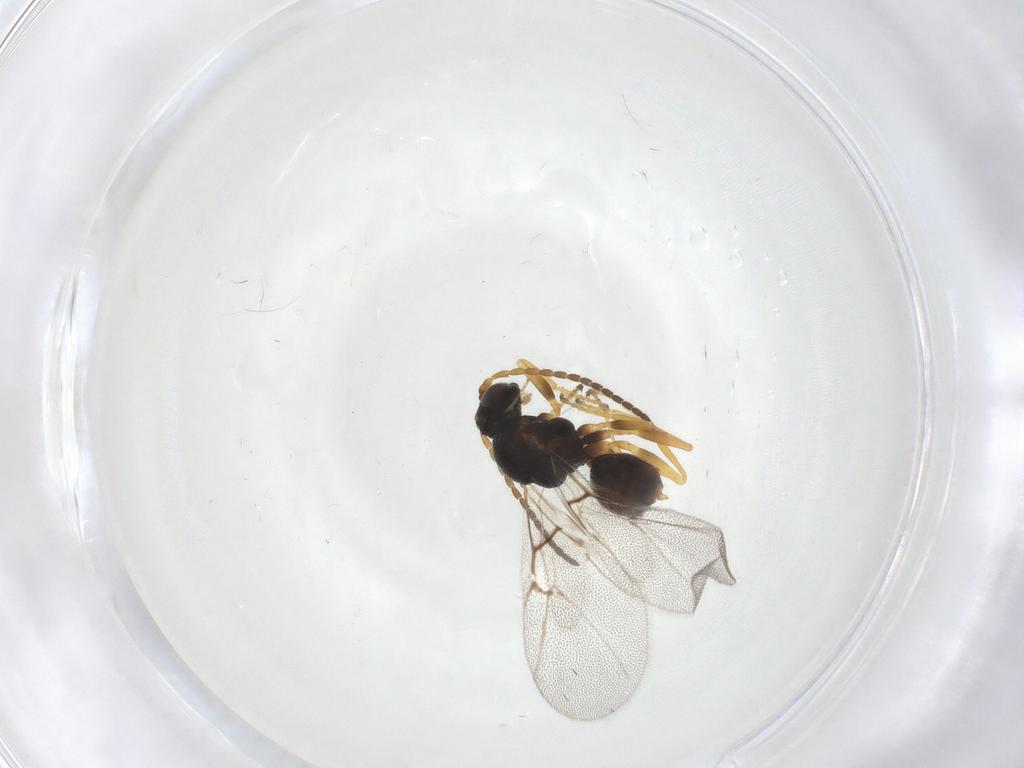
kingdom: Animalia
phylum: Arthropoda
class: Insecta
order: Hymenoptera
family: Cynipidae
